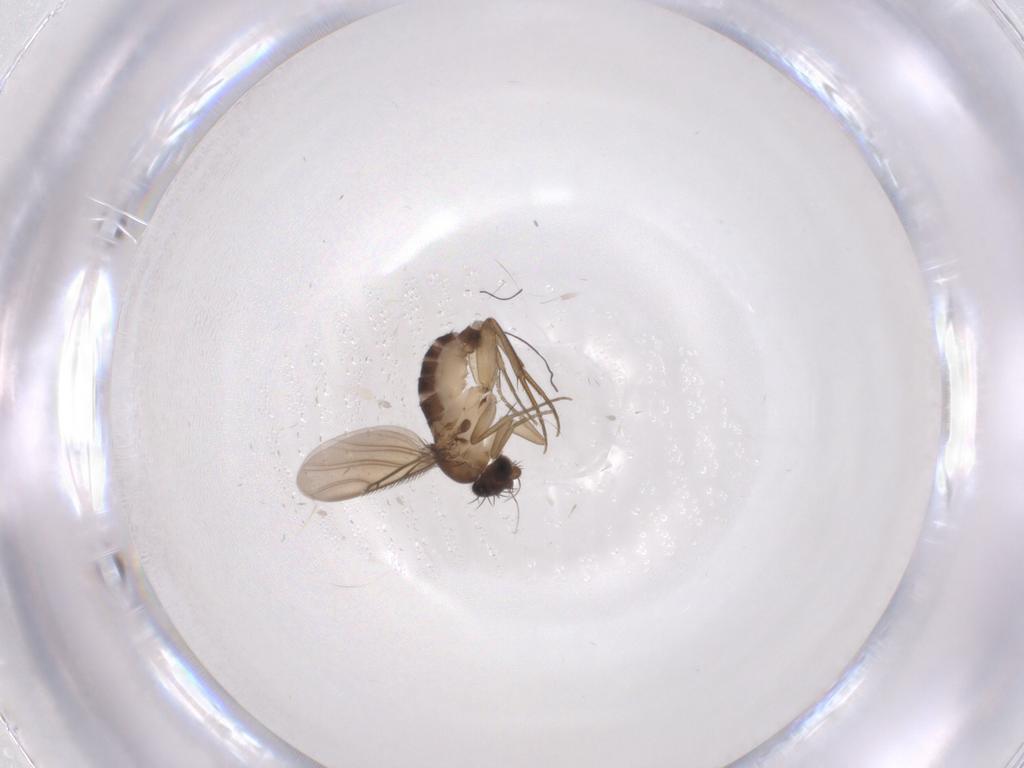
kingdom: Animalia
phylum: Arthropoda
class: Insecta
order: Diptera
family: Phoridae
